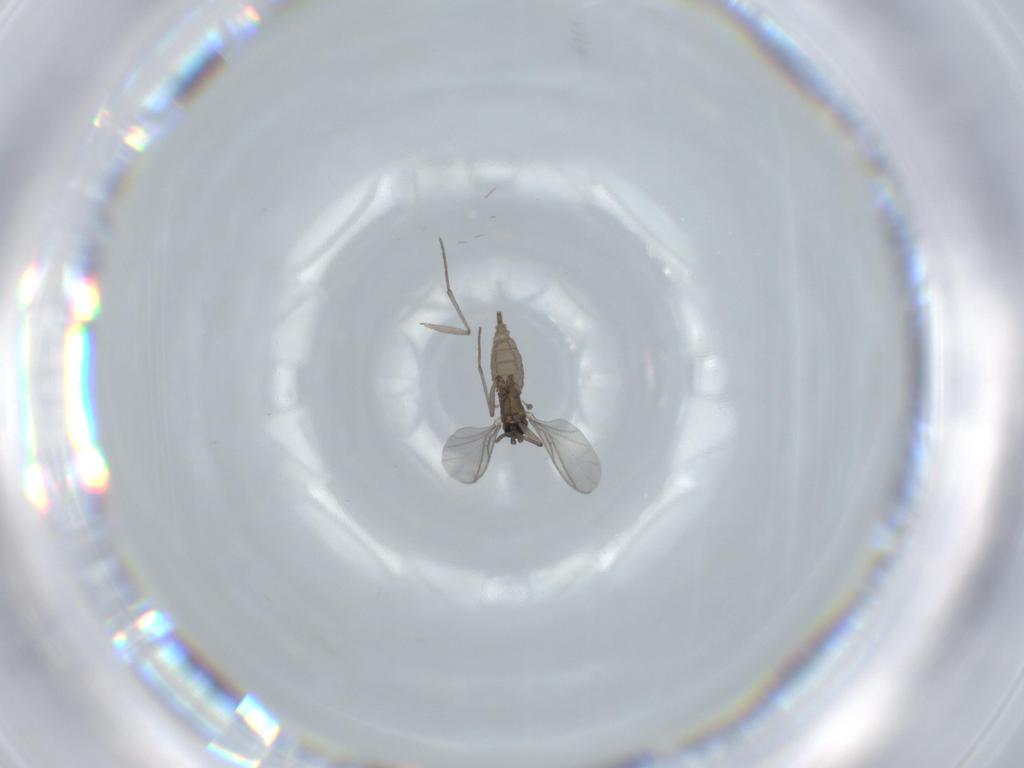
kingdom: Animalia
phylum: Arthropoda
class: Insecta
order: Diptera
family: Sciaridae
